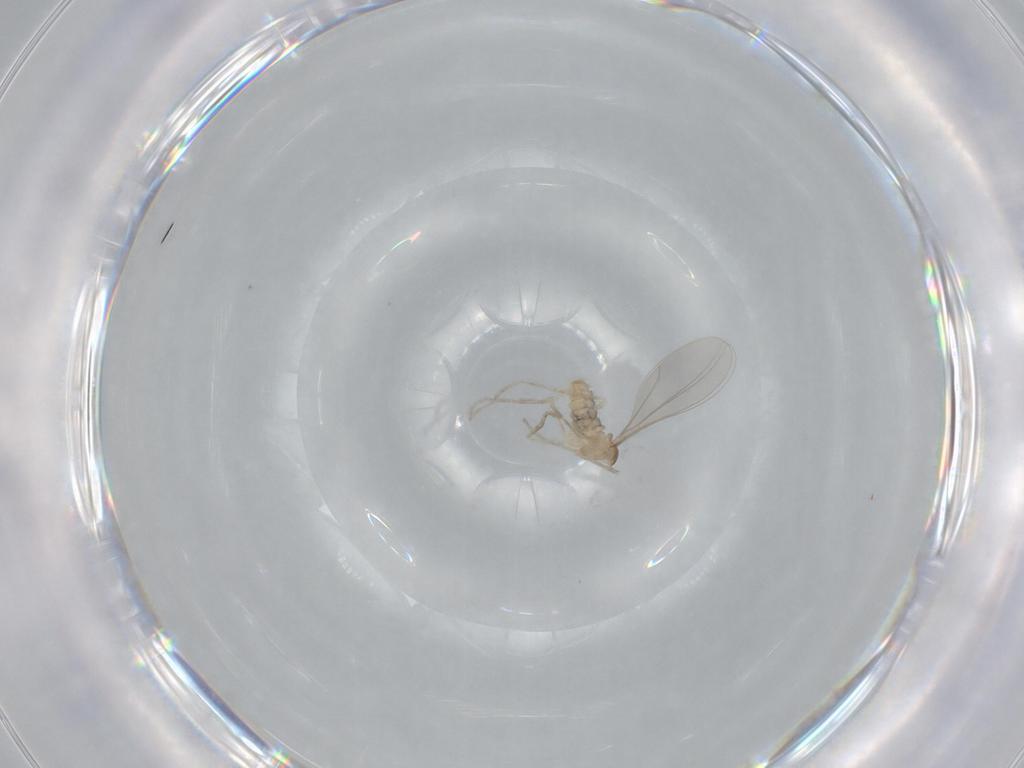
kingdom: Animalia
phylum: Arthropoda
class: Insecta
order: Diptera
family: Cecidomyiidae
